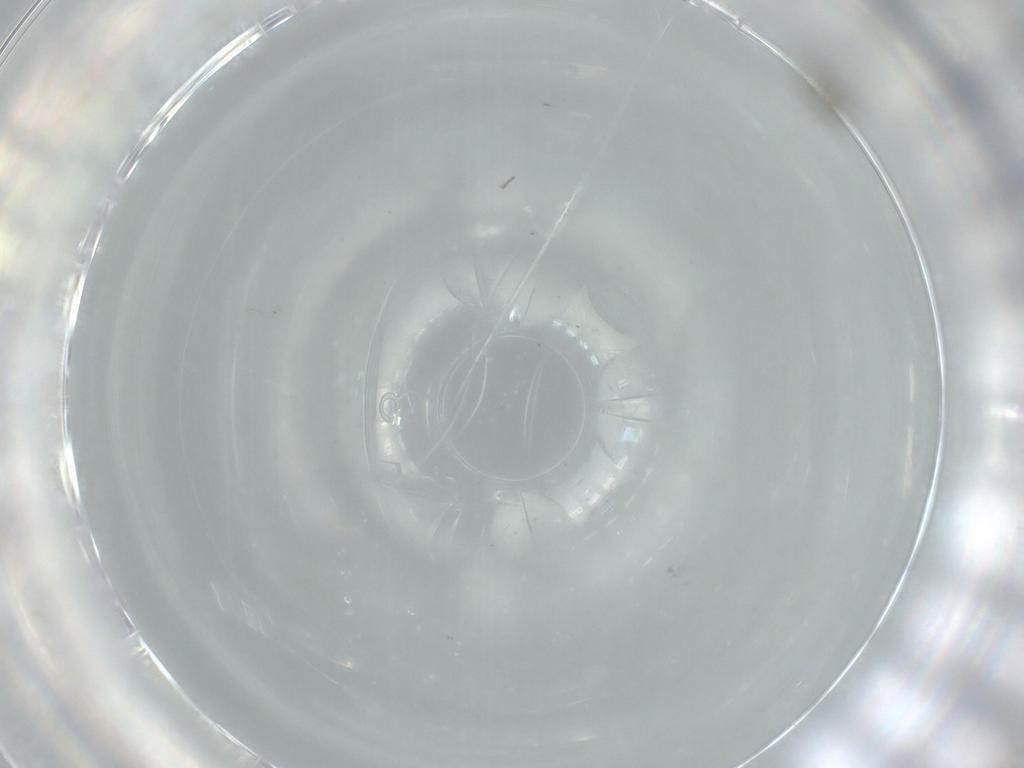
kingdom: Animalia
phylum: Arthropoda
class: Insecta
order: Diptera
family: Cecidomyiidae
